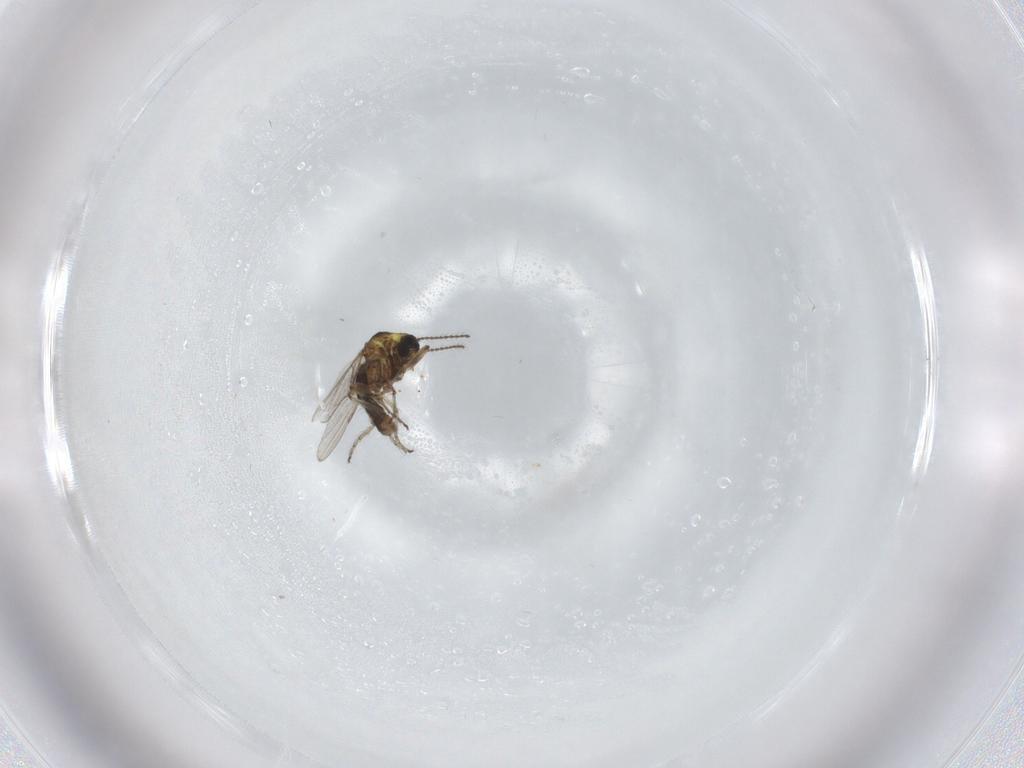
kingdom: Animalia
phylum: Arthropoda
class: Insecta
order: Diptera
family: Ceratopogonidae
